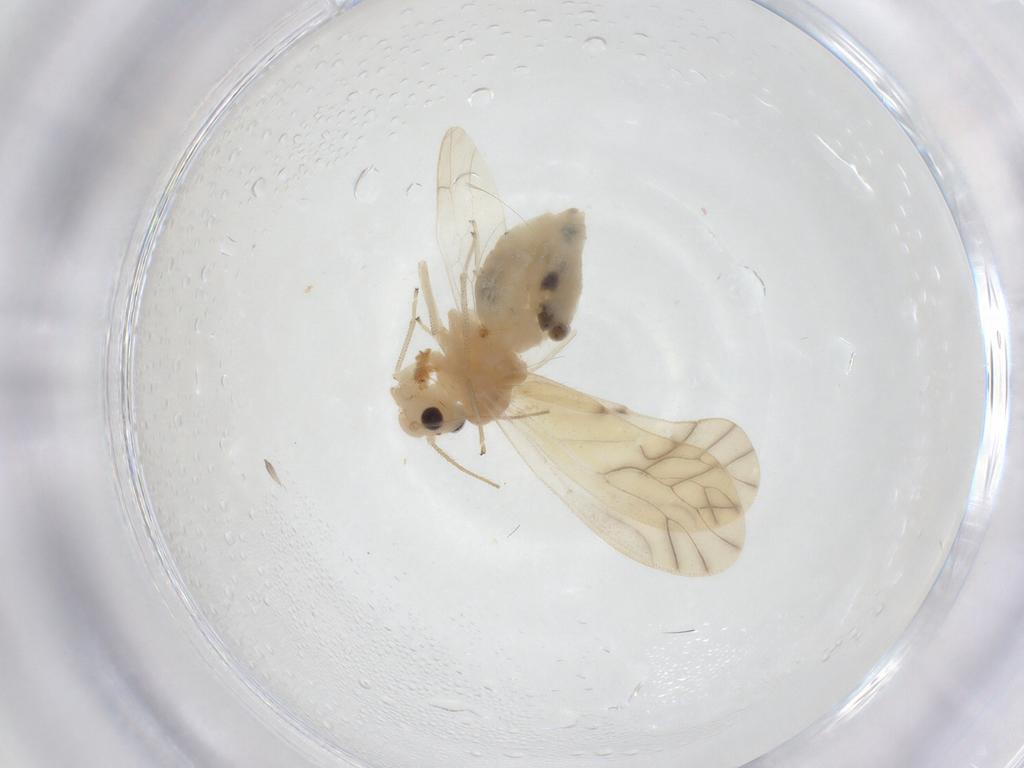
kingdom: Animalia
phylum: Arthropoda
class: Insecta
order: Psocodea
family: Caeciliusidae
